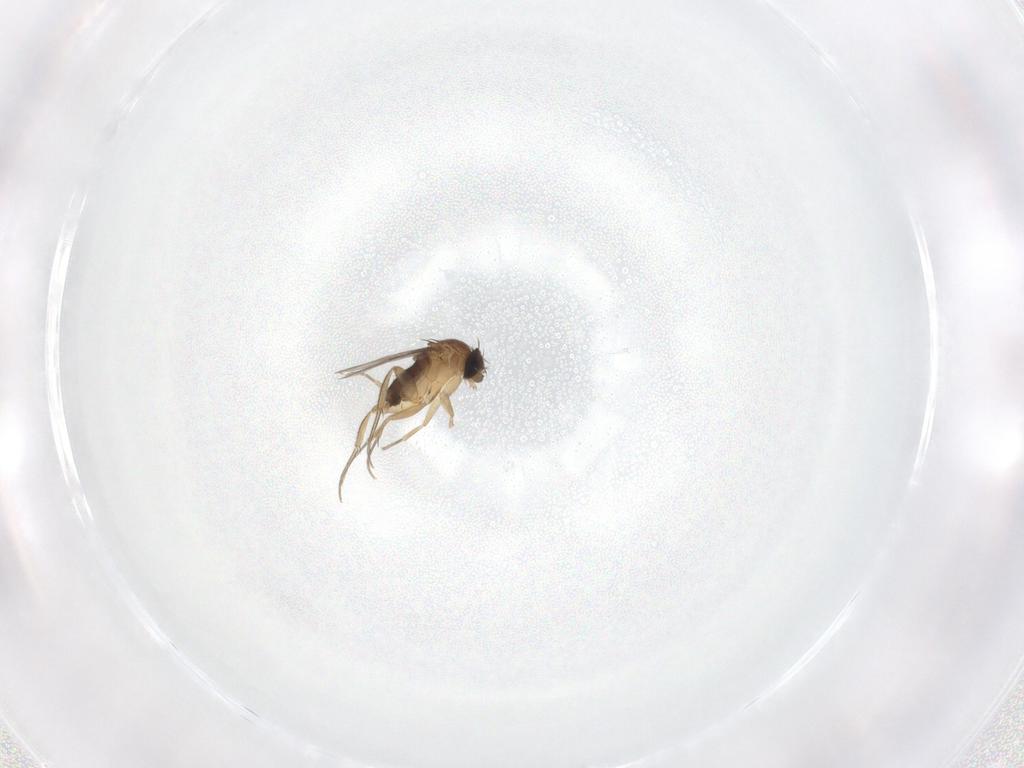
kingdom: Animalia
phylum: Arthropoda
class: Insecta
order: Diptera
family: Phoridae
